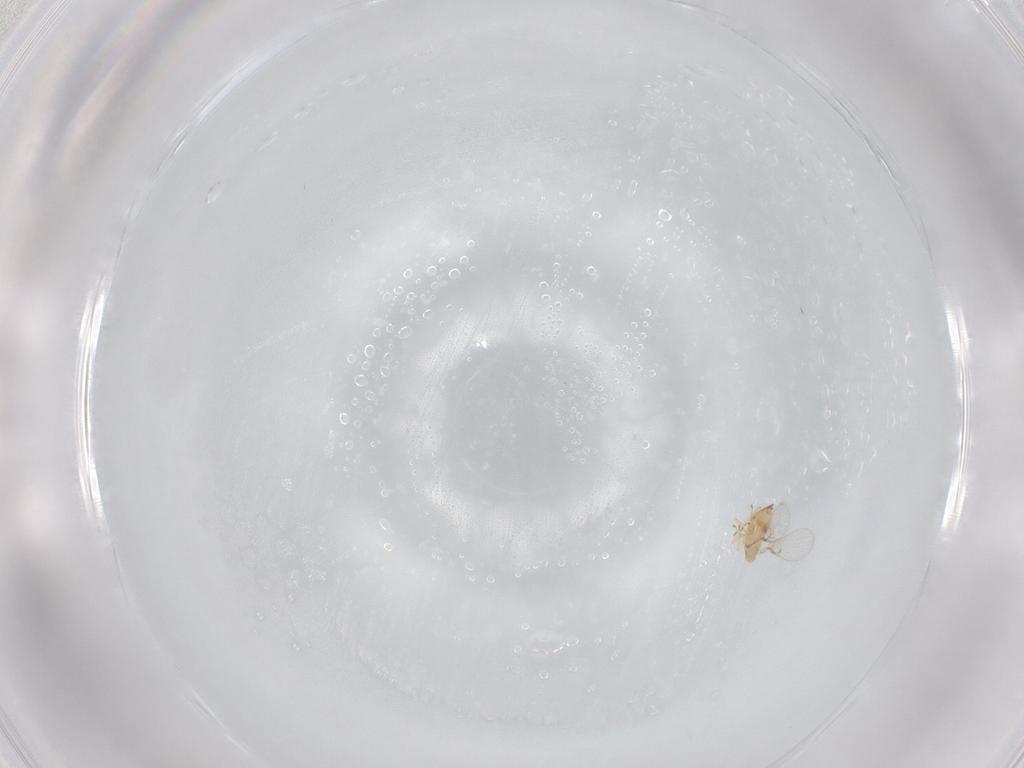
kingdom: Animalia
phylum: Arthropoda
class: Insecta
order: Hymenoptera
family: Trichogrammatidae
